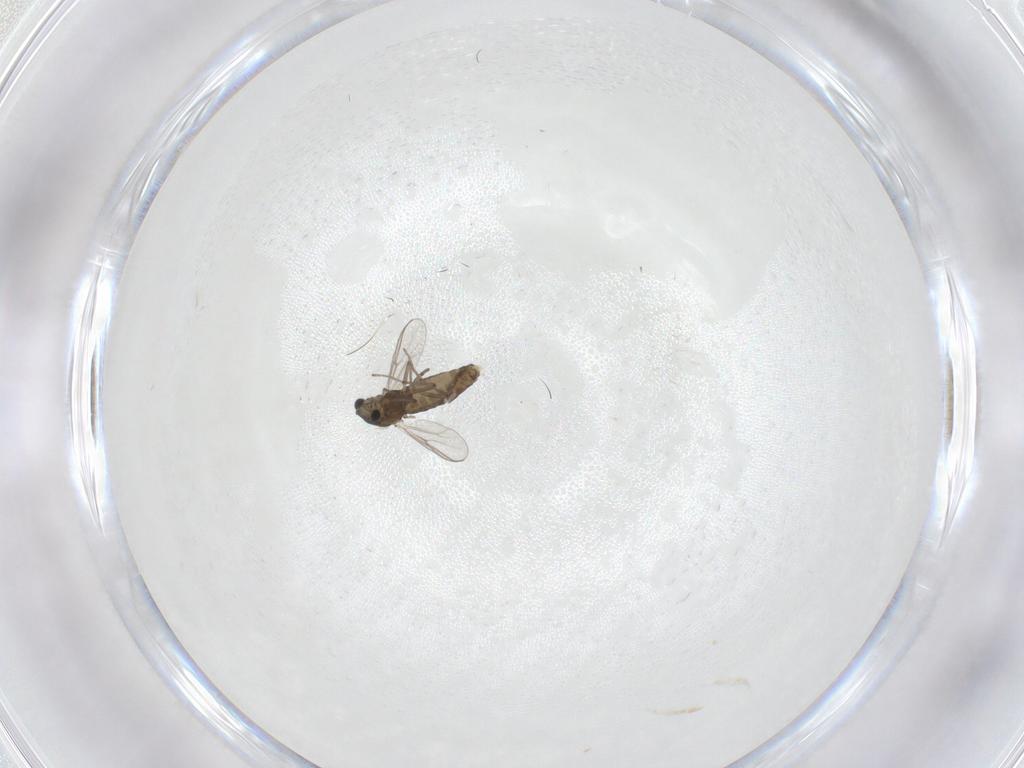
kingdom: Animalia
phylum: Arthropoda
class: Insecta
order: Diptera
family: Chironomidae
